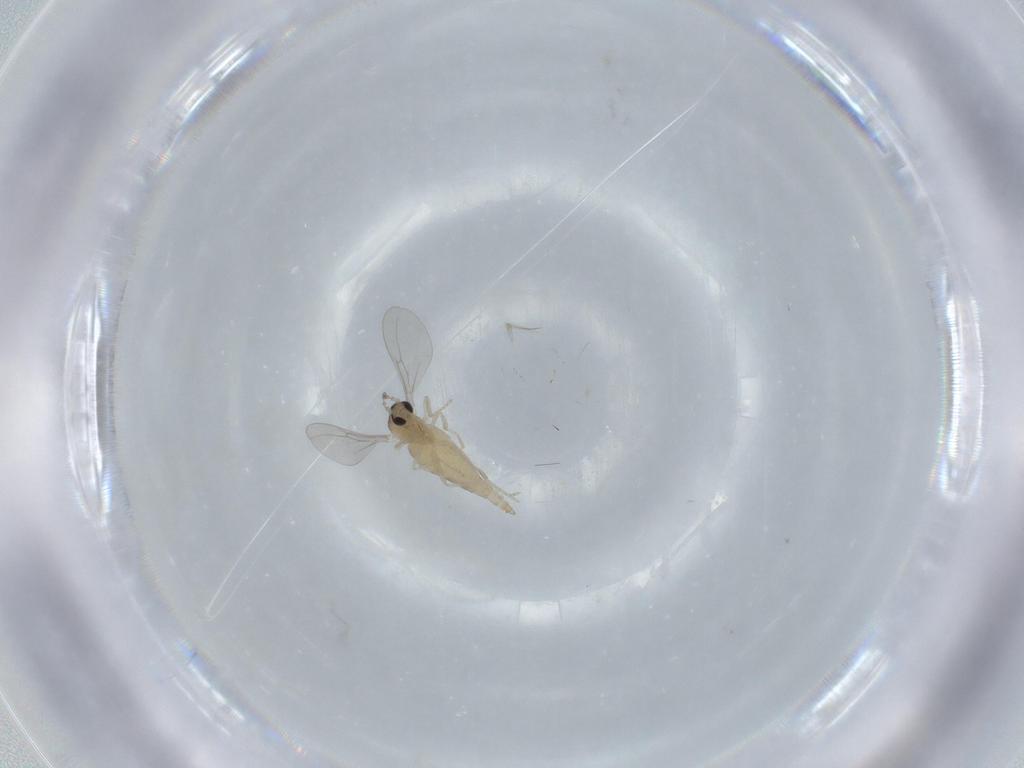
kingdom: Animalia
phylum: Arthropoda
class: Insecta
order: Diptera
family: Cecidomyiidae
